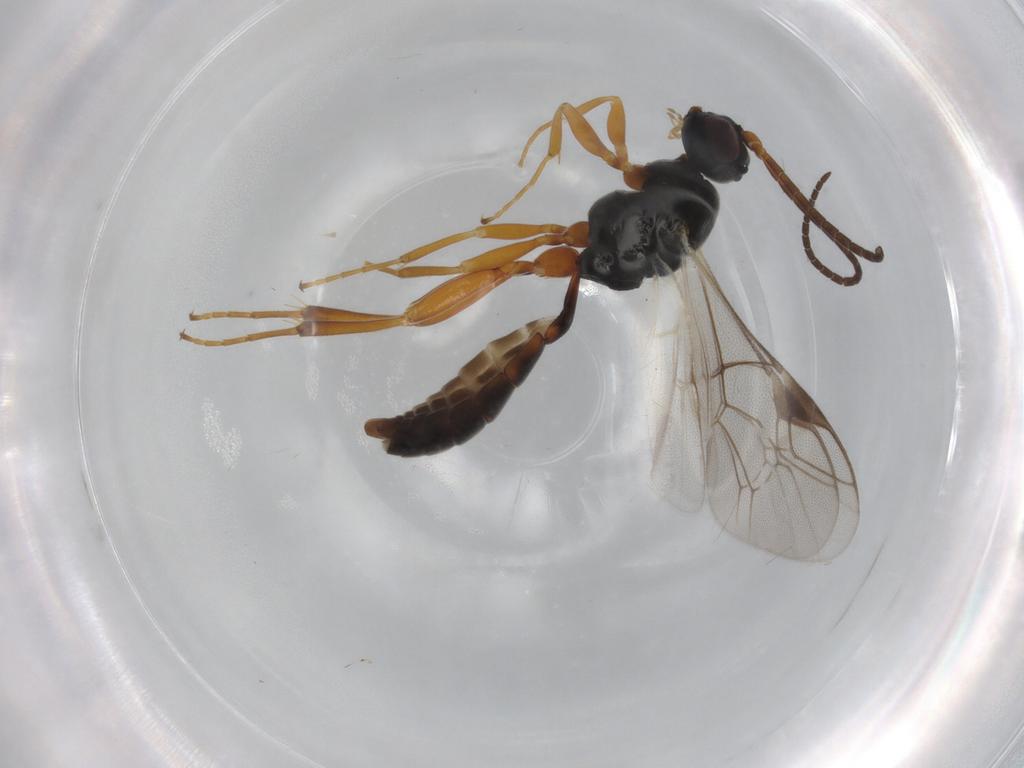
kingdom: Animalia
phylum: Arthropoda
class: Insecta
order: Hymenoptera
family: Ichneumonidae
